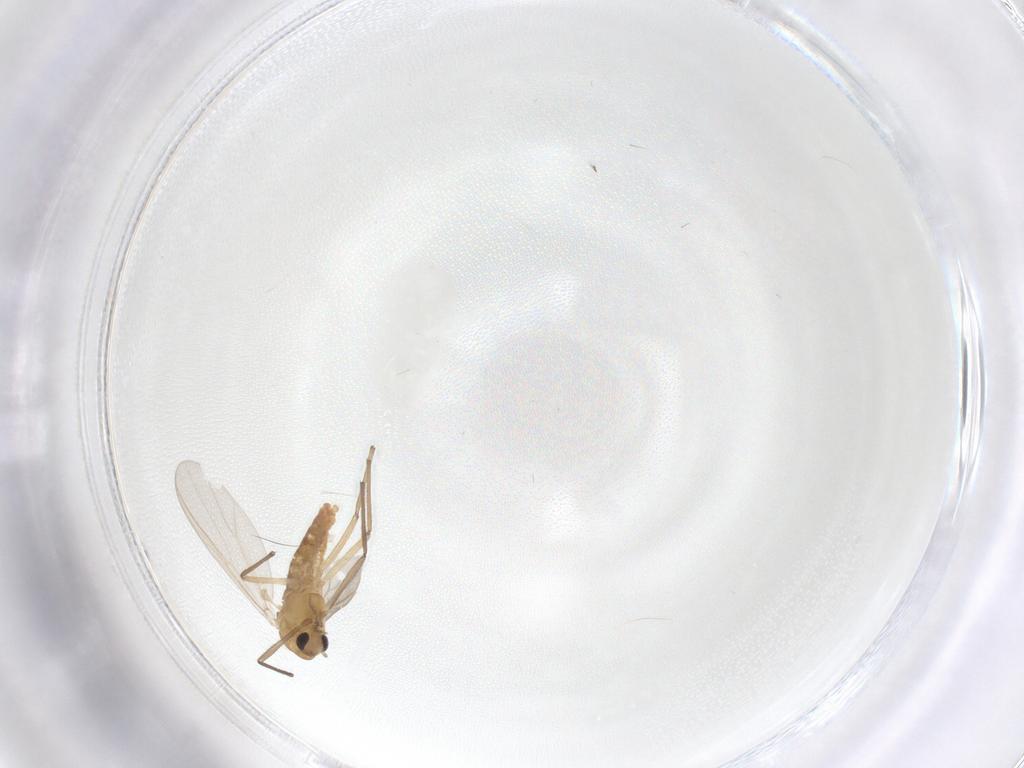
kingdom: Animalia
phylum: Arthropoda
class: Insecta
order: Diptera
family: Chironomidae
